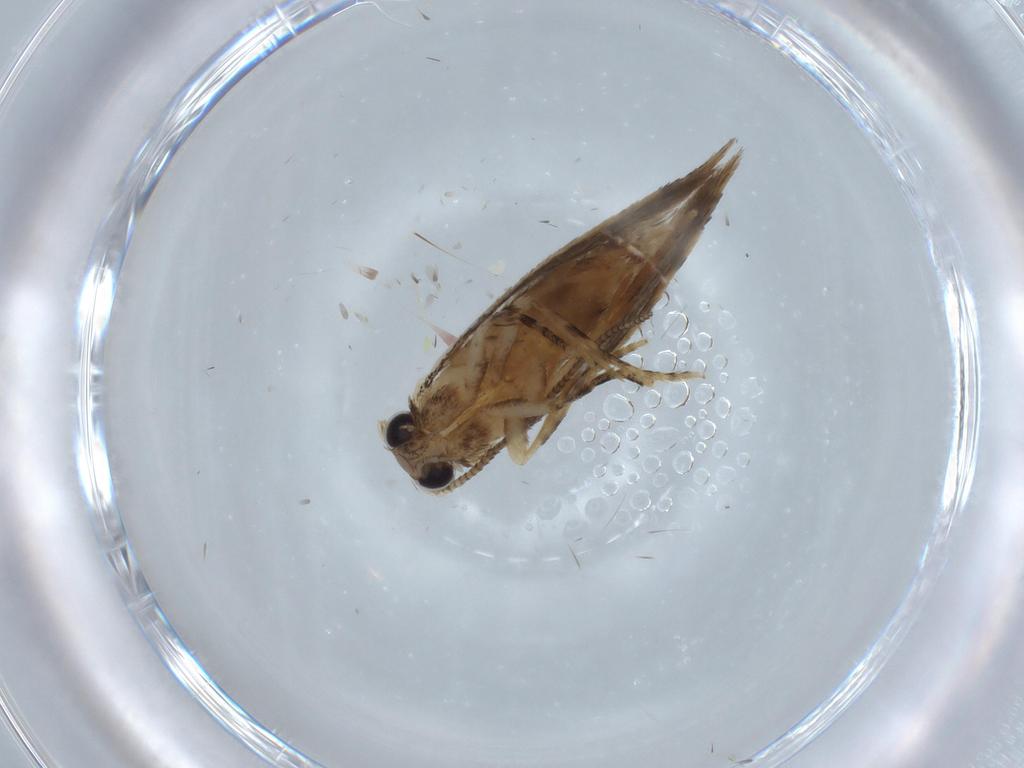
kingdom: Animalia
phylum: Arthropoda
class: Insecta
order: Lepidoptera
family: Tineidae
